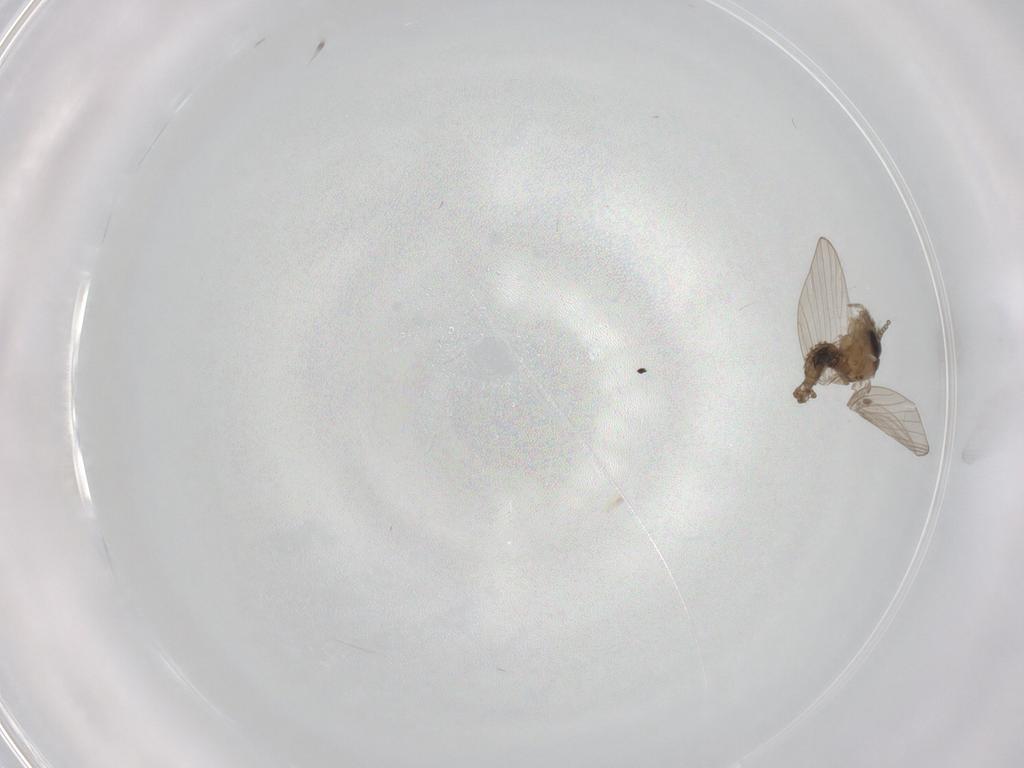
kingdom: Animalia
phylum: Arthropoda
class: Insecta
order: Diptera
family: Psychodidae
